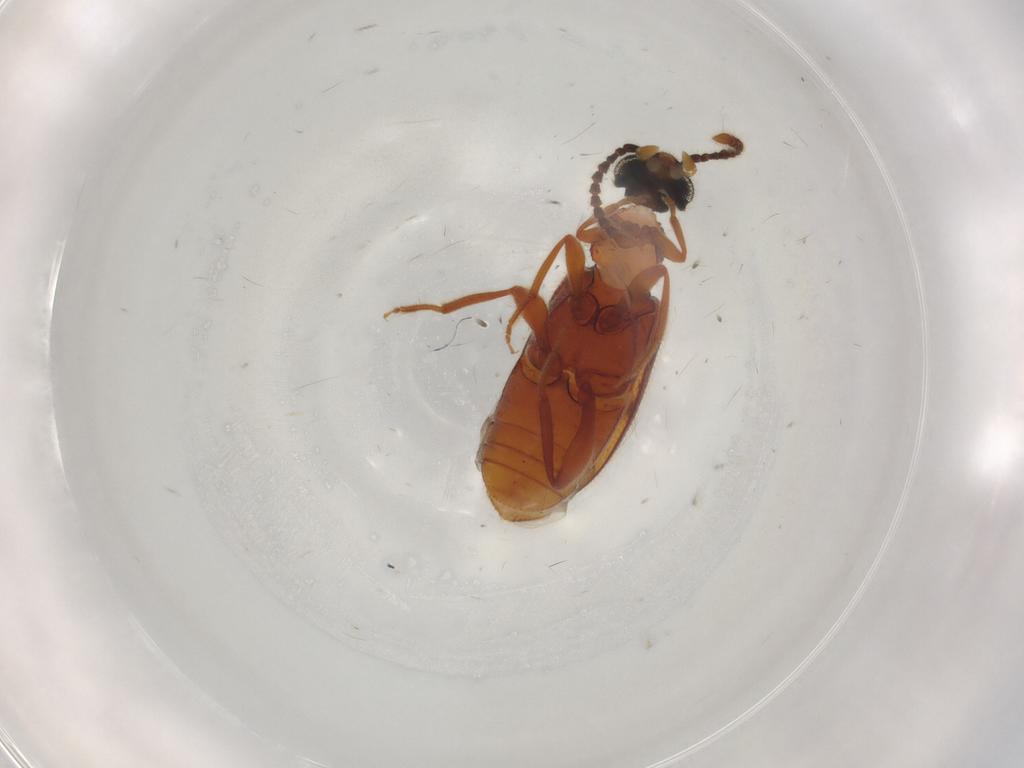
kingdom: Animalia
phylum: Arthropoda
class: Insecta
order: Coleoptera
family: Aderidae
